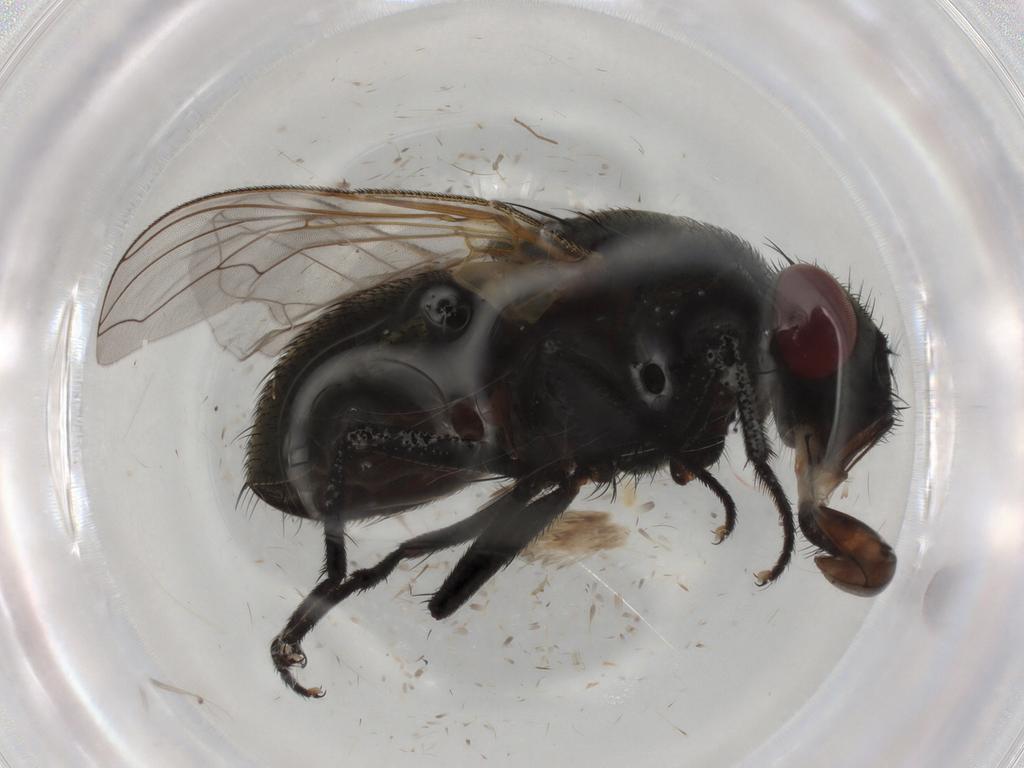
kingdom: Animalia
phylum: Arthropoda
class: Insecta
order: Diptera
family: Muscidae
